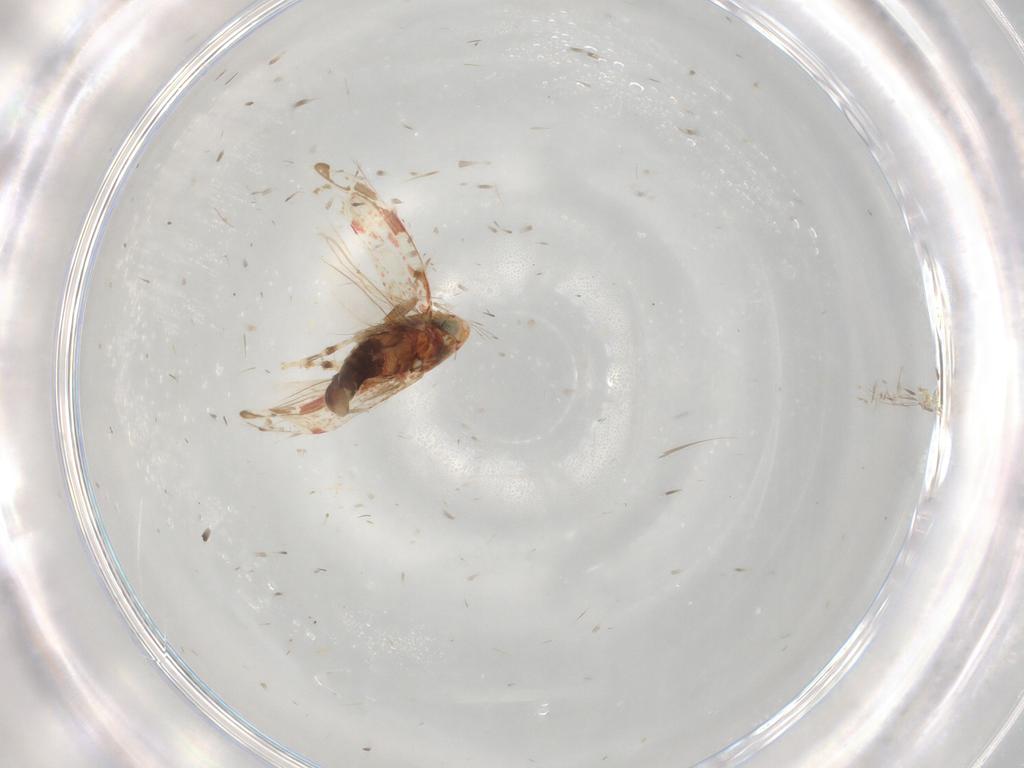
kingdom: Animalia
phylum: Arthropoda
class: Insecta
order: Hemiptera
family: Cicadellidae
